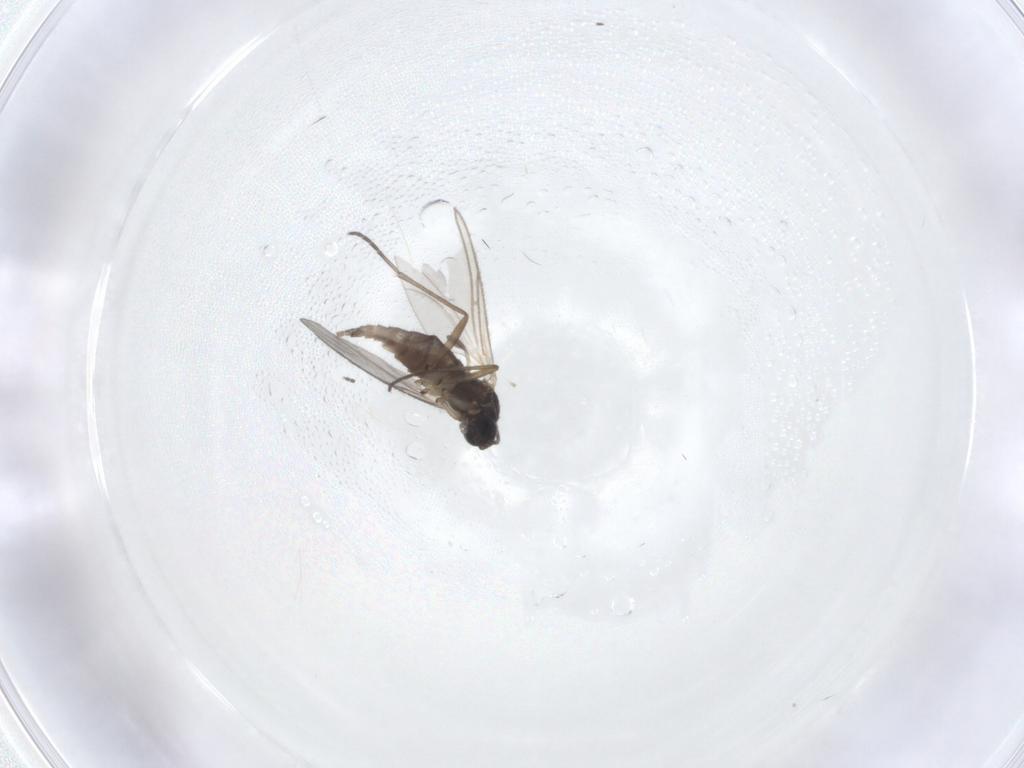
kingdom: Animalia
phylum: Arthropoda
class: Insecta
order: Diptera
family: Sciaridae
